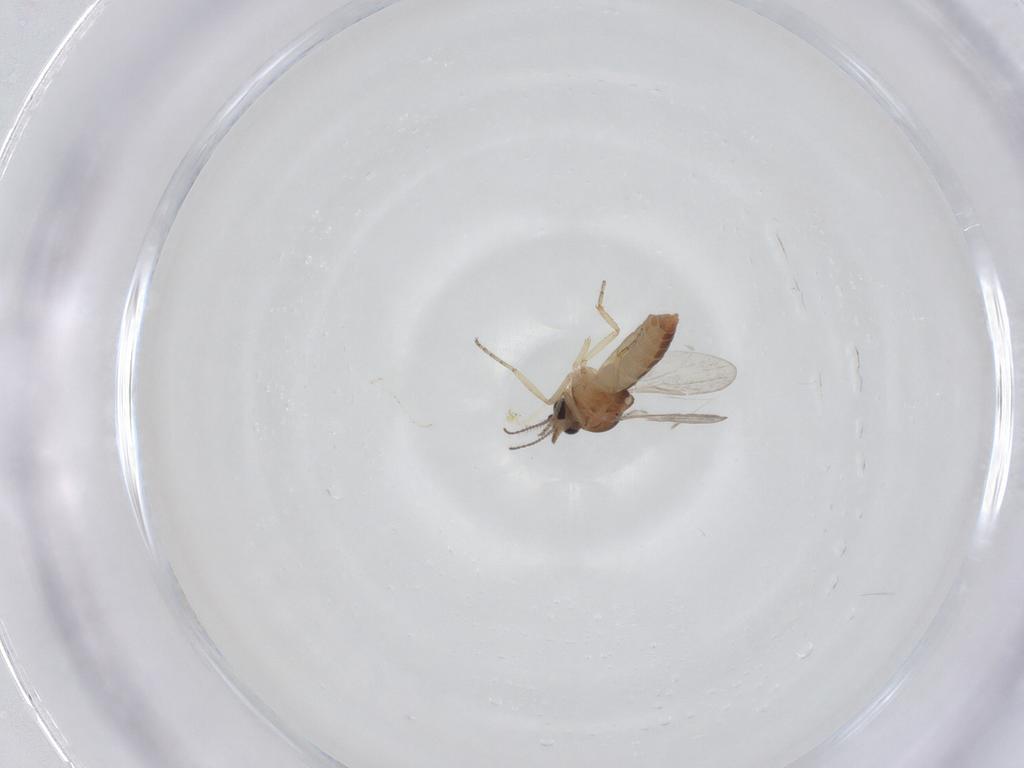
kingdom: Animalia
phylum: Arthropoda
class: Insecta
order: Diptera
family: Ceratopogonidae
